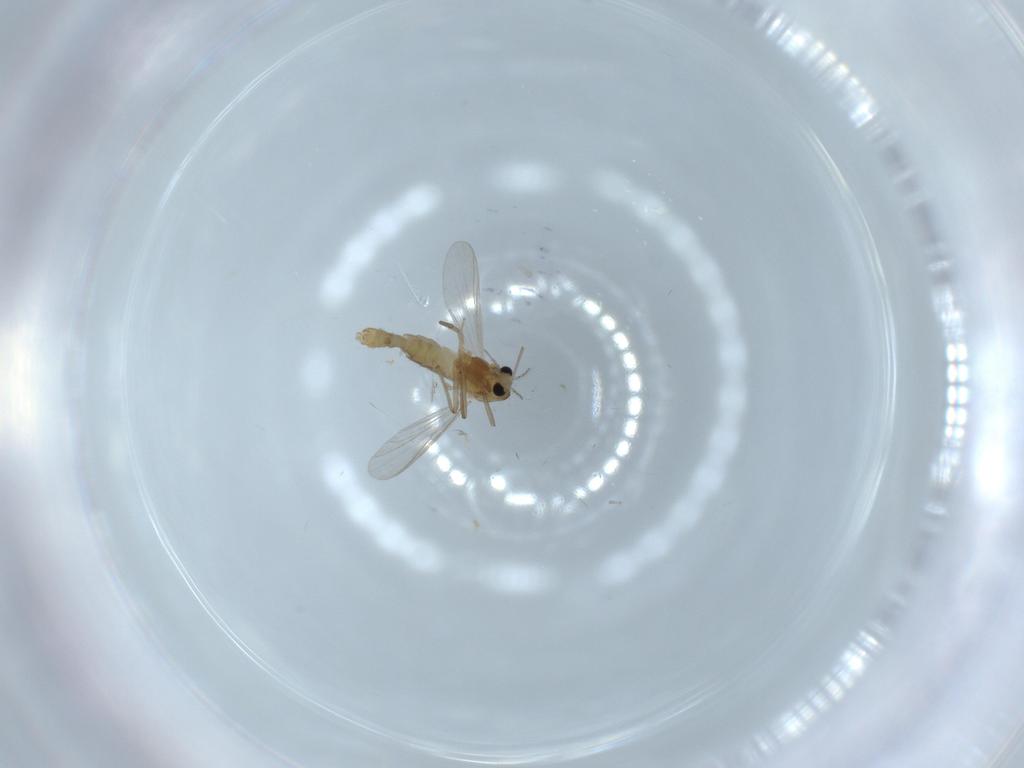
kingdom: Animalia
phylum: Arthropoda
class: Insecta
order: Diptera
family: Chironomidae
